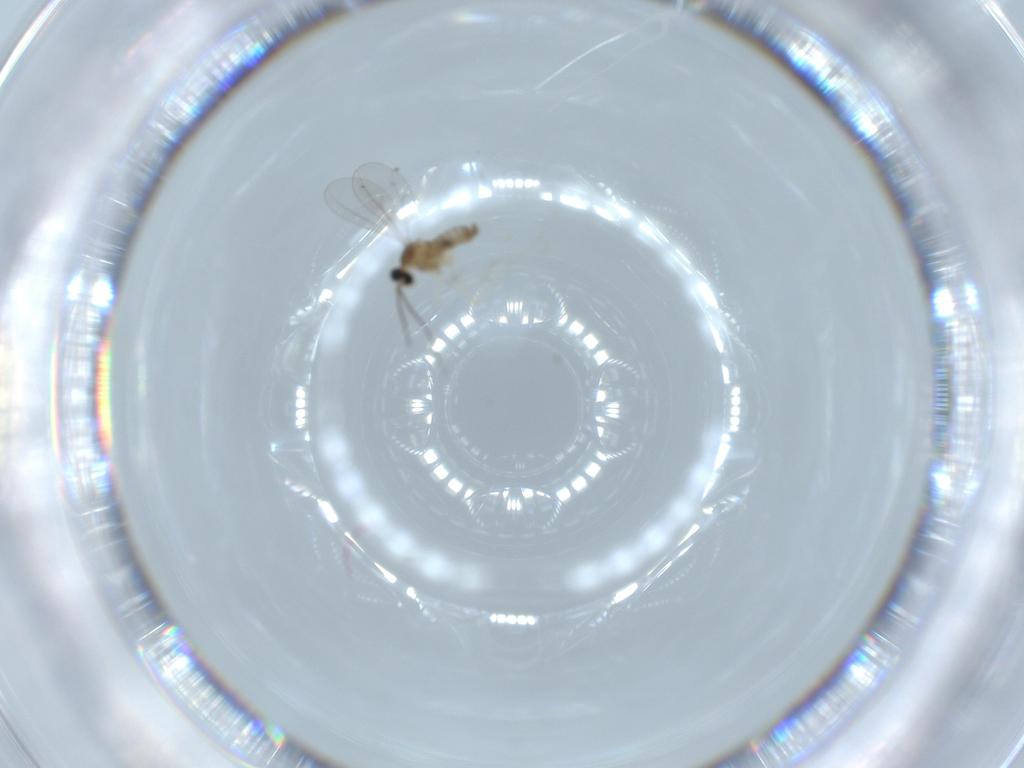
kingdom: Animalia
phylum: Arthropoda
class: Insecta
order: Diptera
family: Cecidomyiidae
